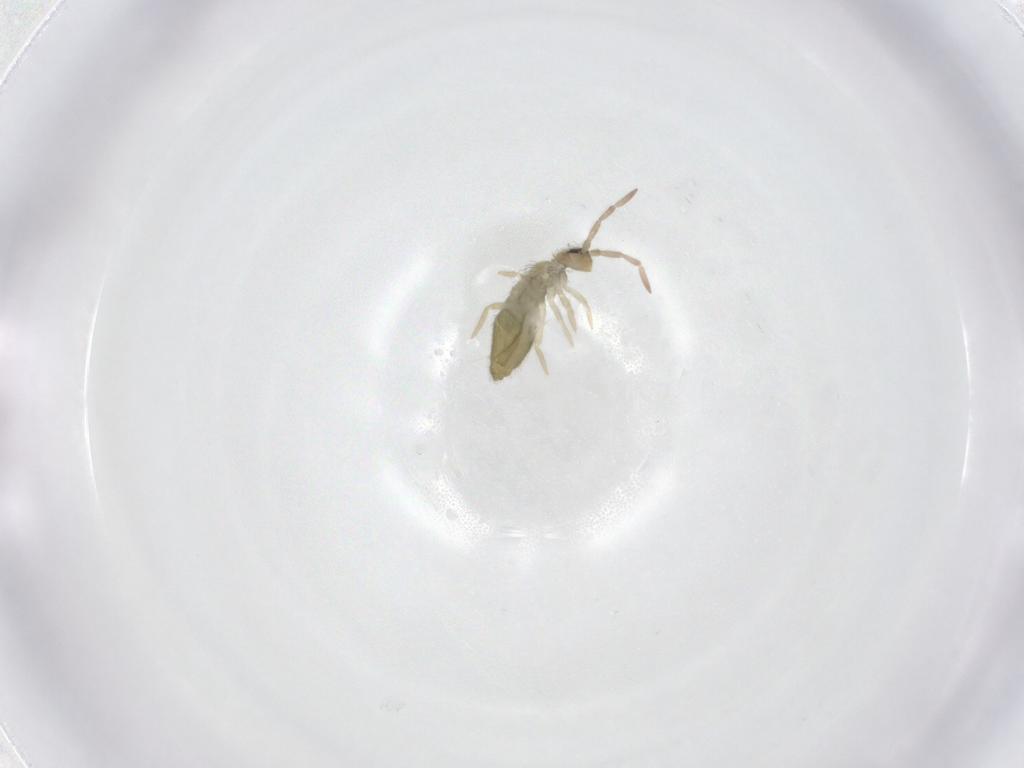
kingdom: Animalia
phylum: Arthropoda
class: Collembola
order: Entomobryomorpha
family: Entomobryidae
